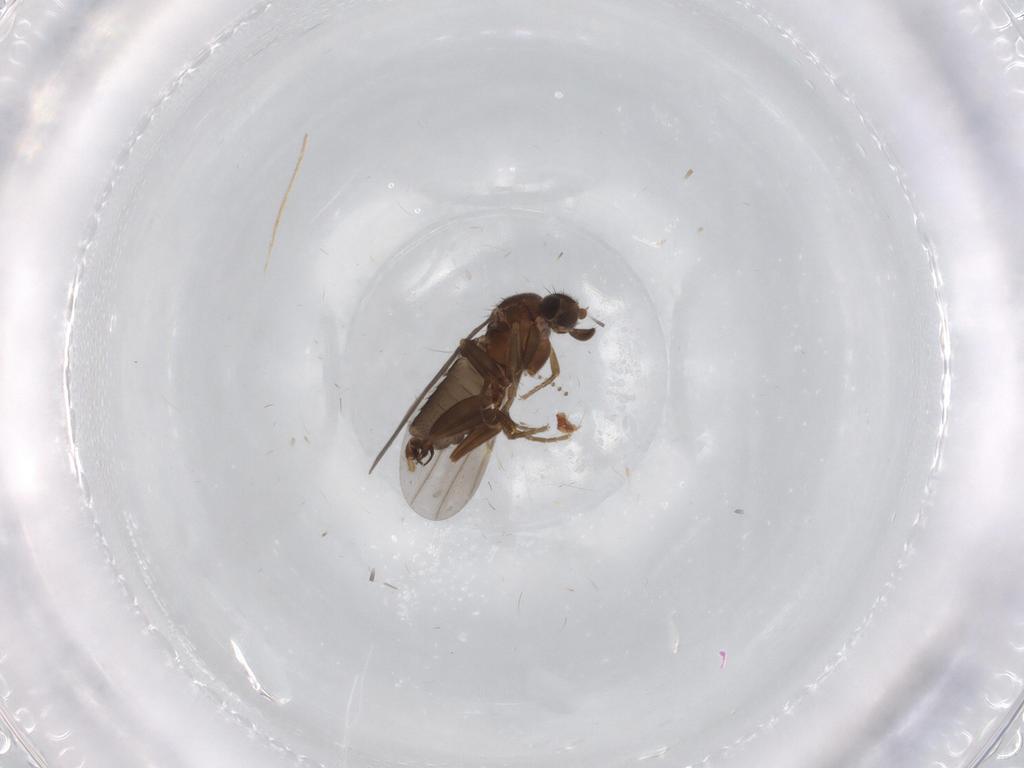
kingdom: Animalia
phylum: Arthropoda
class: Insecta
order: Diptera
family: Phoridae
